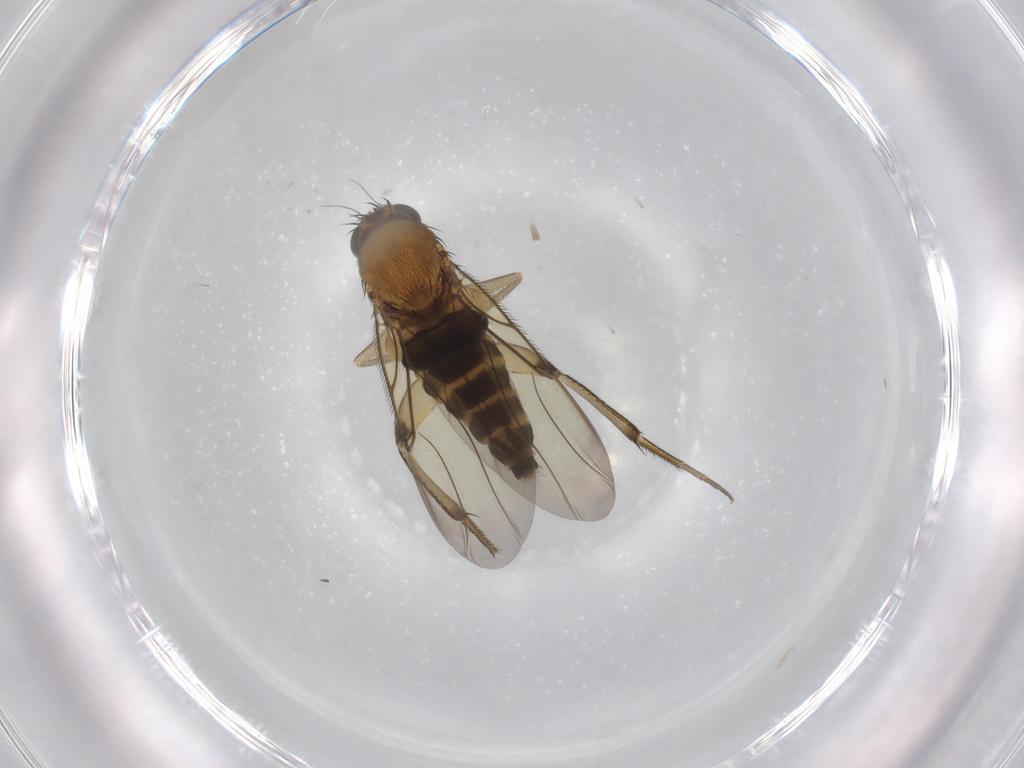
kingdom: Animalia
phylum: Arthropoda
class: Insecta
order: Diptera
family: Phoridae
